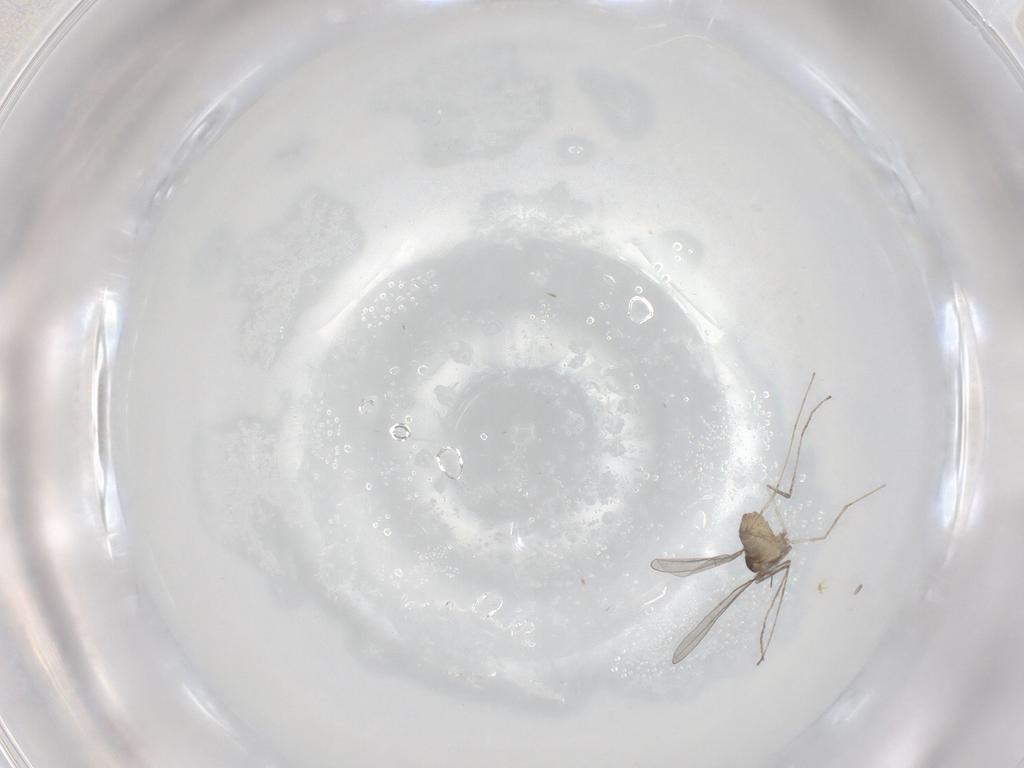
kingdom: Animalia
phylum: Arthropoda
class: Insecta
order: Diptera
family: Cecidomyiidae
